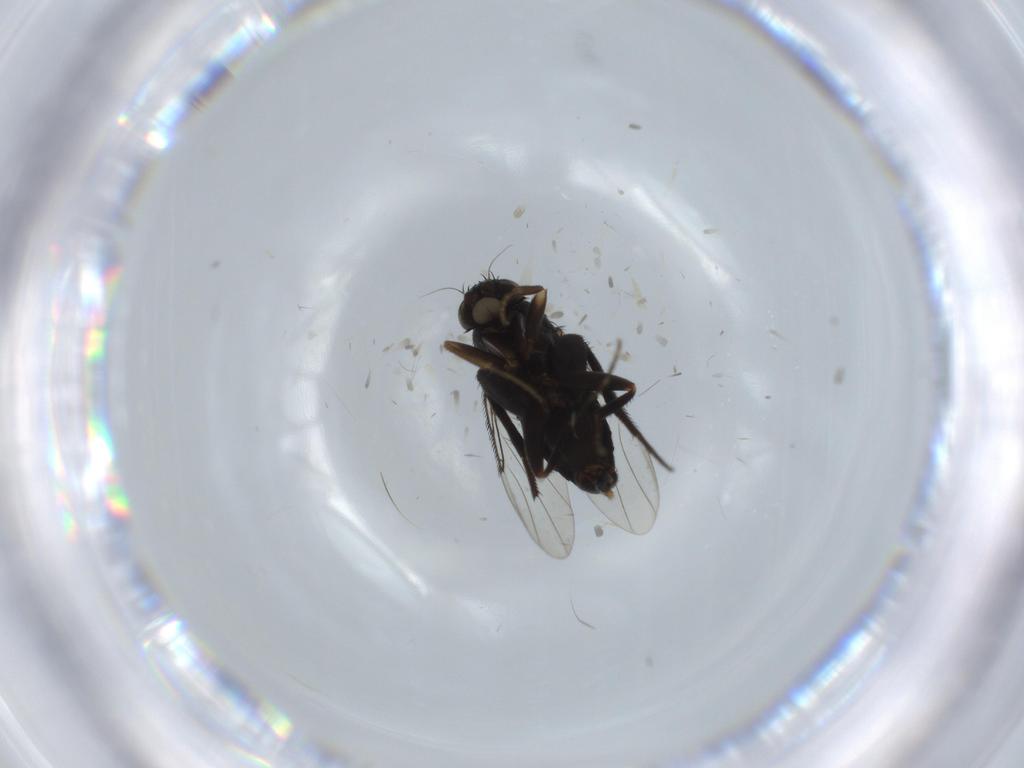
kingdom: Animalia
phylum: Arthropoda
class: Insecta
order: Diptera
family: Phoridae
